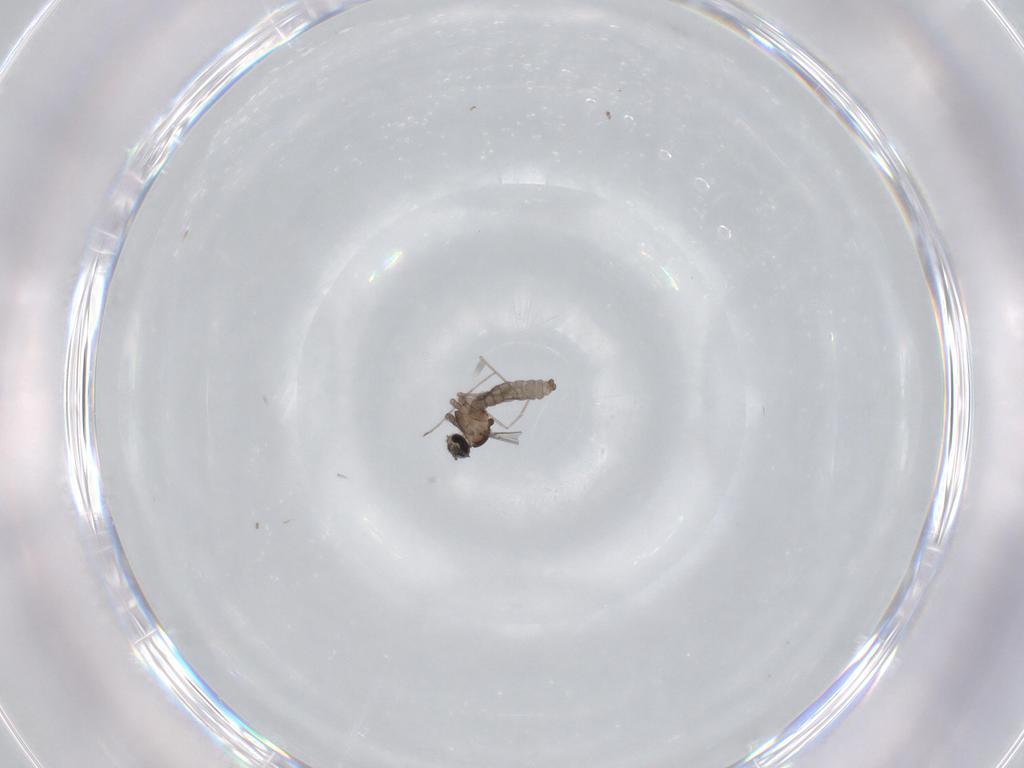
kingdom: Animalia
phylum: Arthropoda
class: Insecta
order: Diptera
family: Cecidomyiidae
